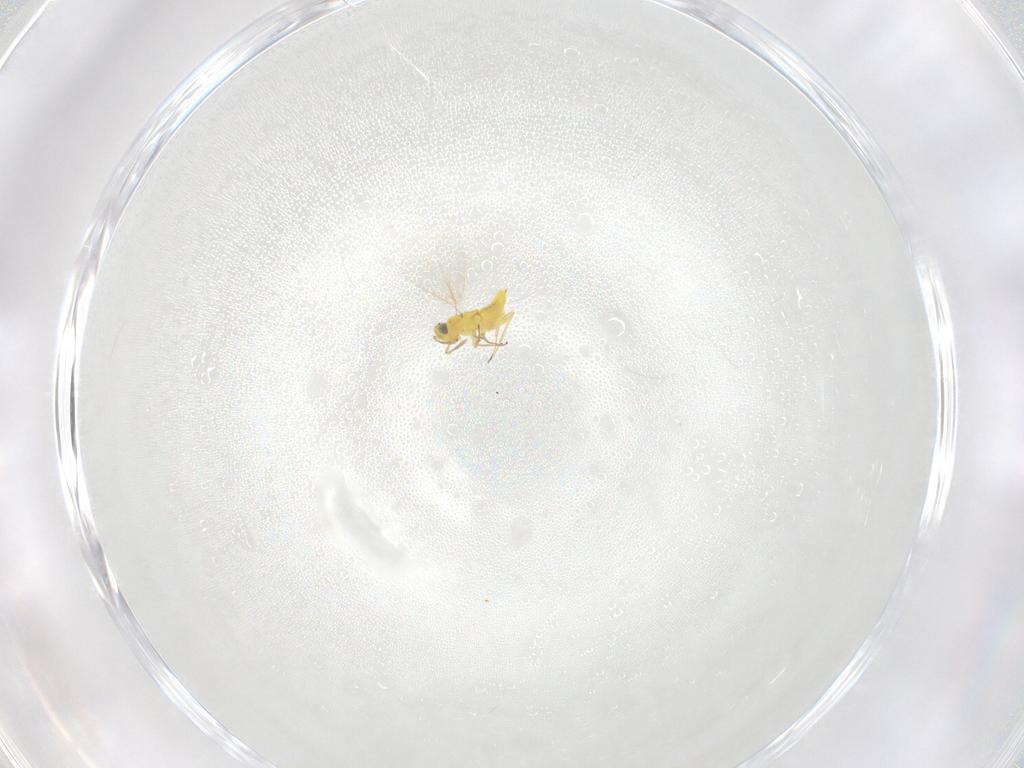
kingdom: Animalia
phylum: Arthropoda
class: Insecta
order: Hymenoptera
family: Aphelinidae
